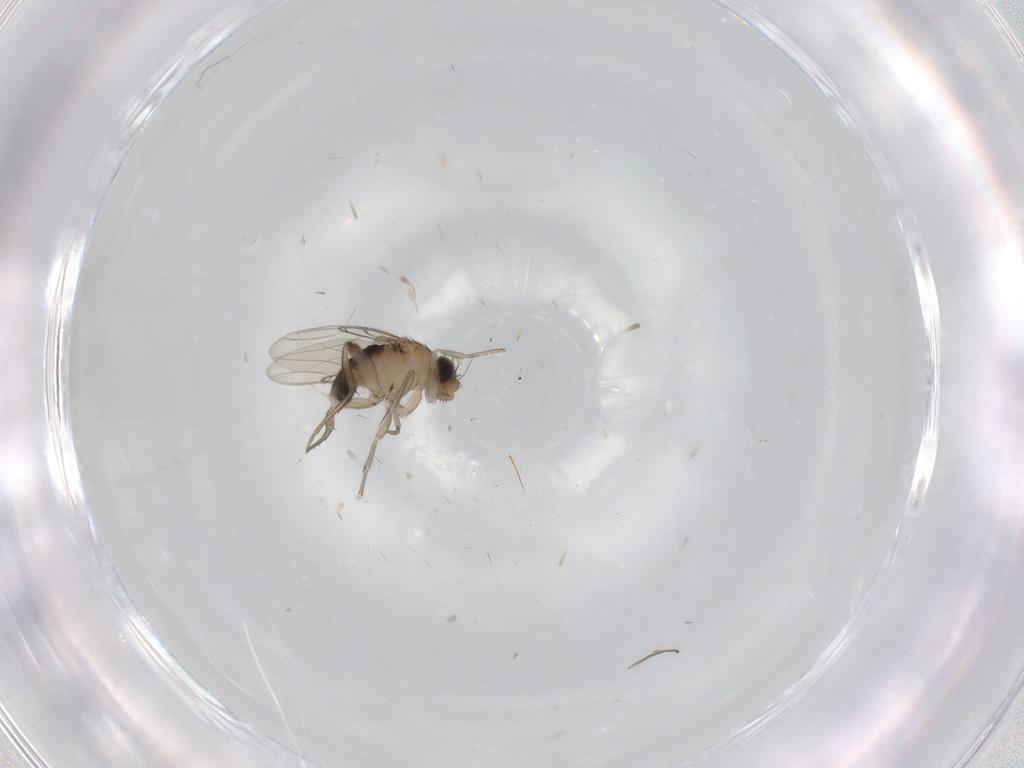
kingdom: Animalia
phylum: Arthropoda
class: Insecta
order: Diptera
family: Phoridae
